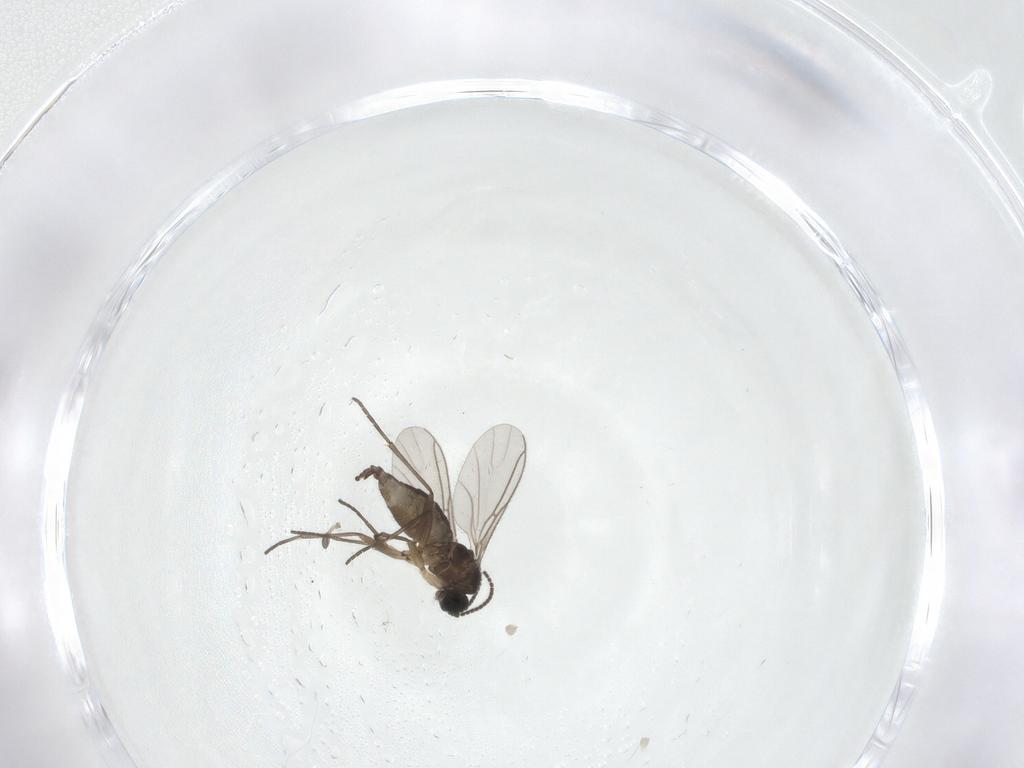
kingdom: Animalia
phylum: Arthropoda
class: Insecta
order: Diptera
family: Sciaridae
